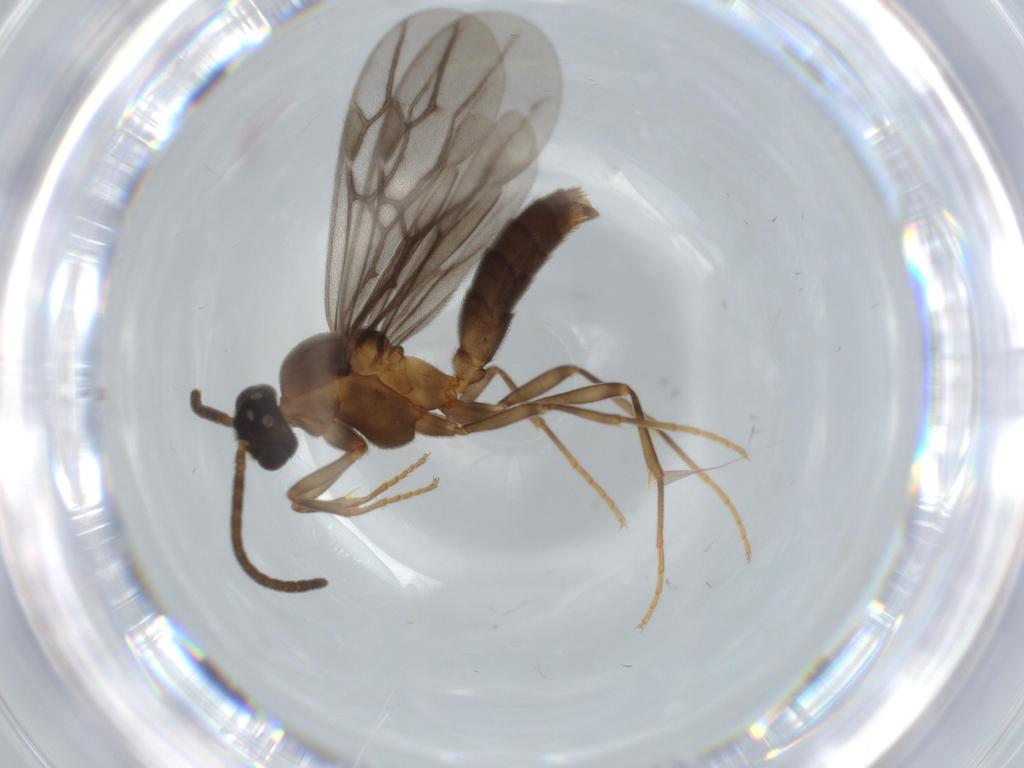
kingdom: Animalia
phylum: Arthropoda
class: Insecta
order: Hymenoptera
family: Formicidae
